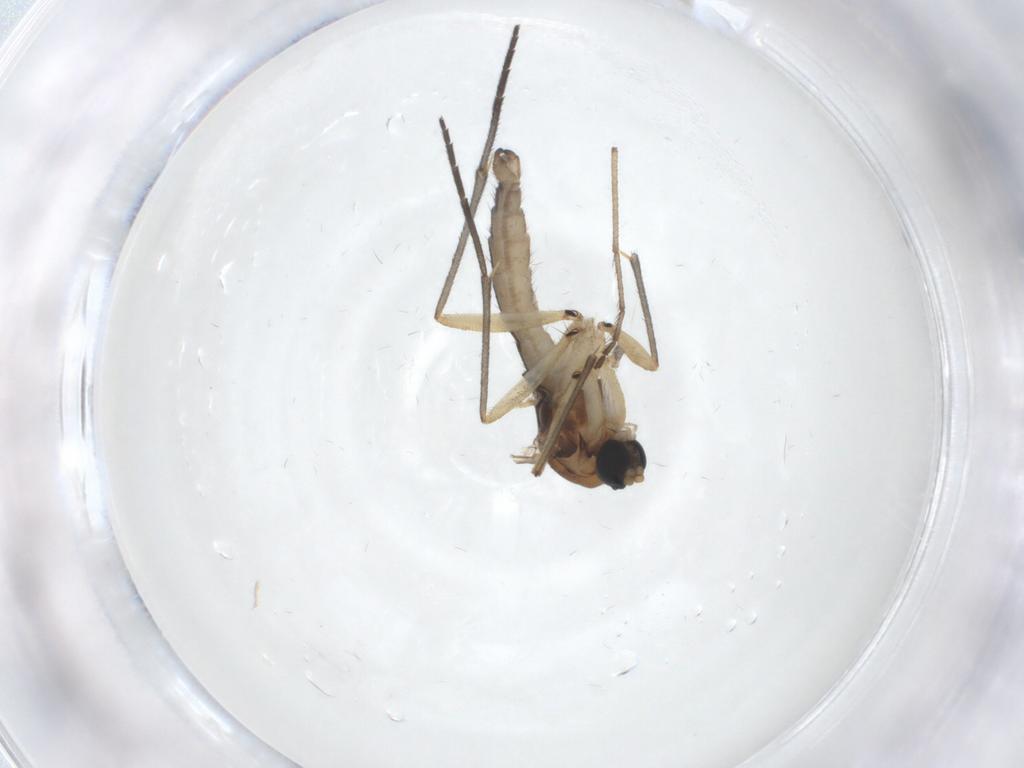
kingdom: Animalia
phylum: Arthropoda
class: Insecta
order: Diptera
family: Sciaridae
